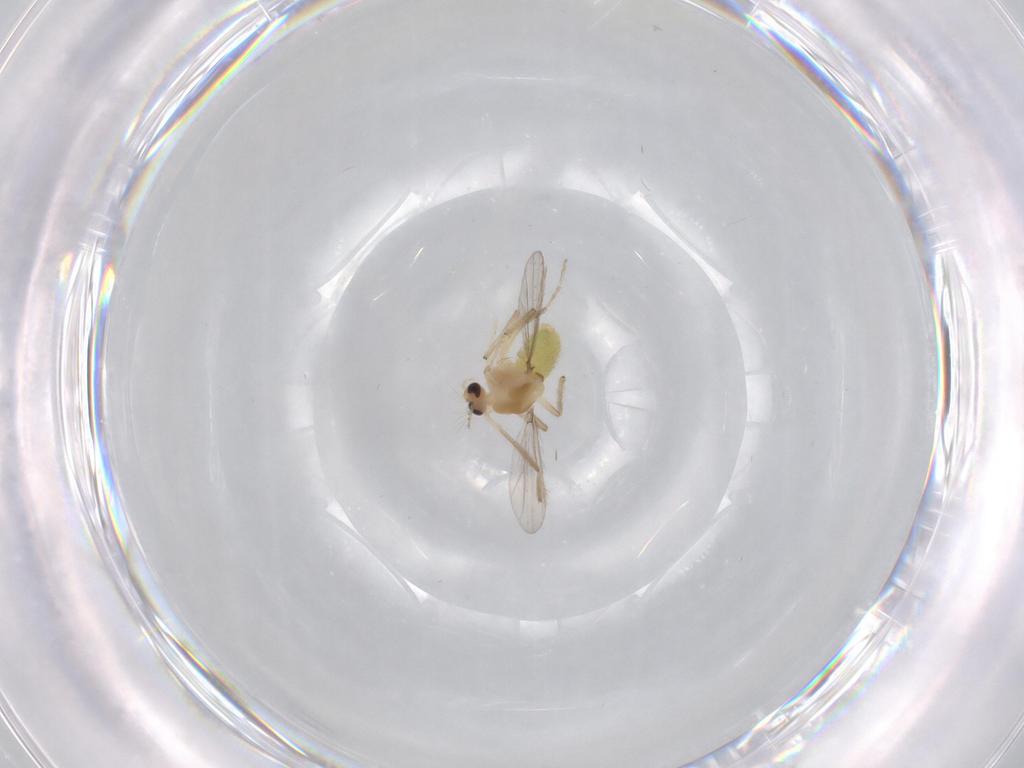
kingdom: Animalia
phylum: Arthropoda
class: Insecta
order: Diptera
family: Chironomidae
